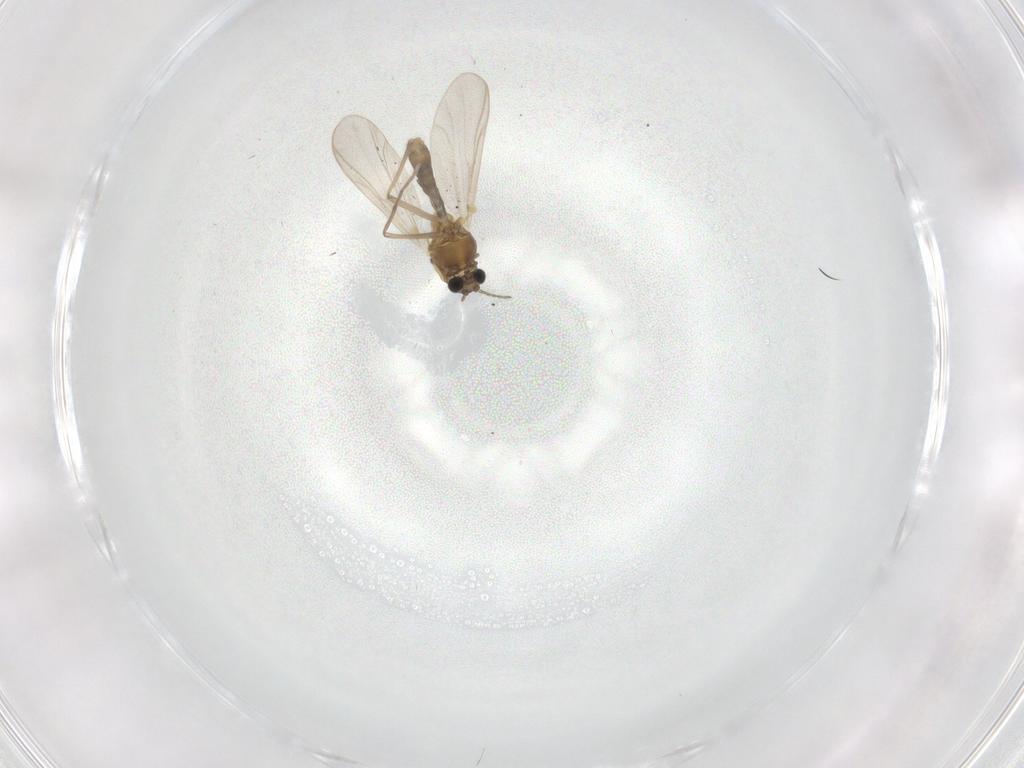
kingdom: Animalia
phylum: Arthropoda
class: Insecta
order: Diptera
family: Chironomidae
